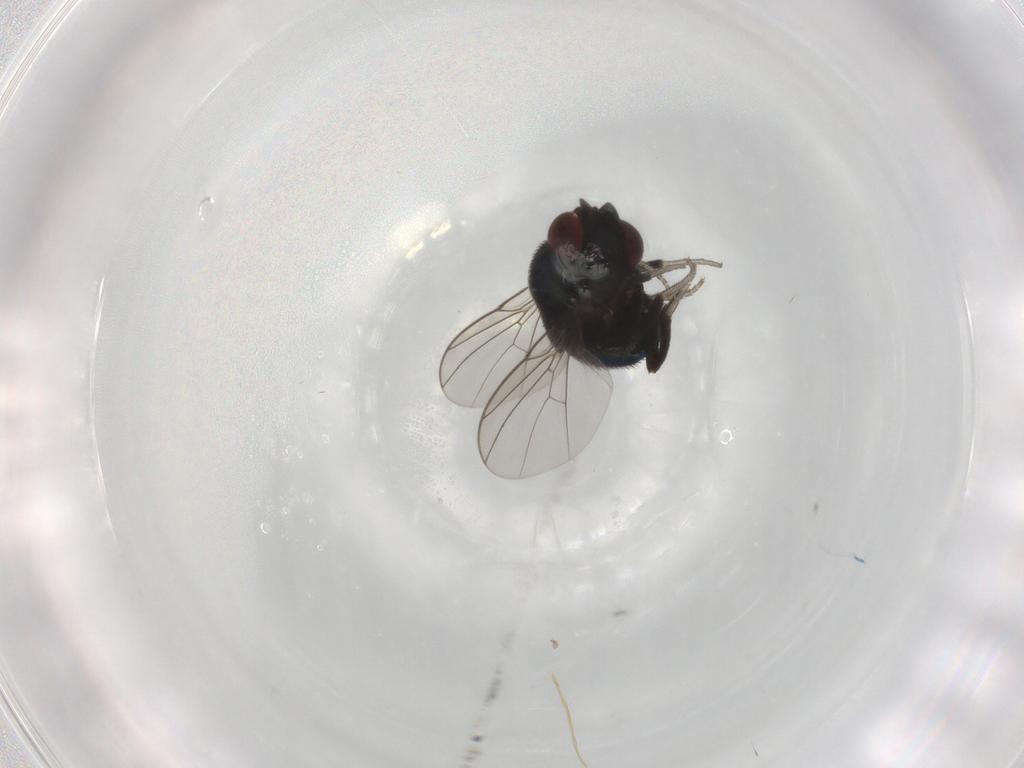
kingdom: Animalia
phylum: Arthropoda
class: Insecta
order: Diptera
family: Cryptochetidae
